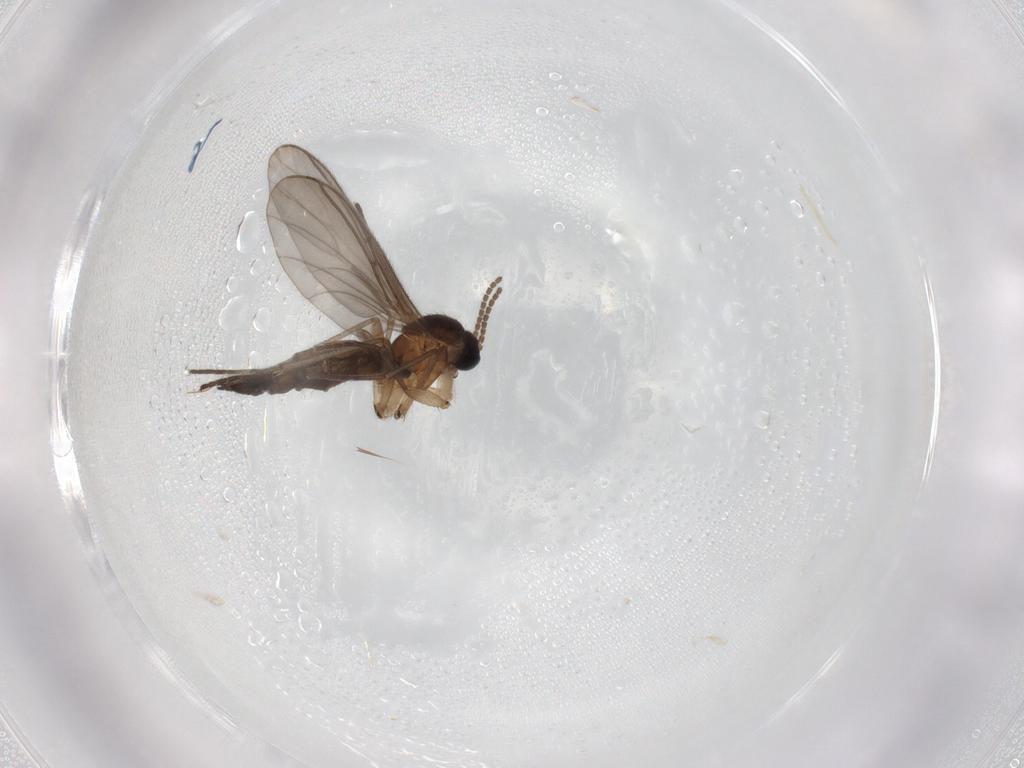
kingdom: Animalia
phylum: Arthropoda
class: Insecta
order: Diptera
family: Sciaridae
